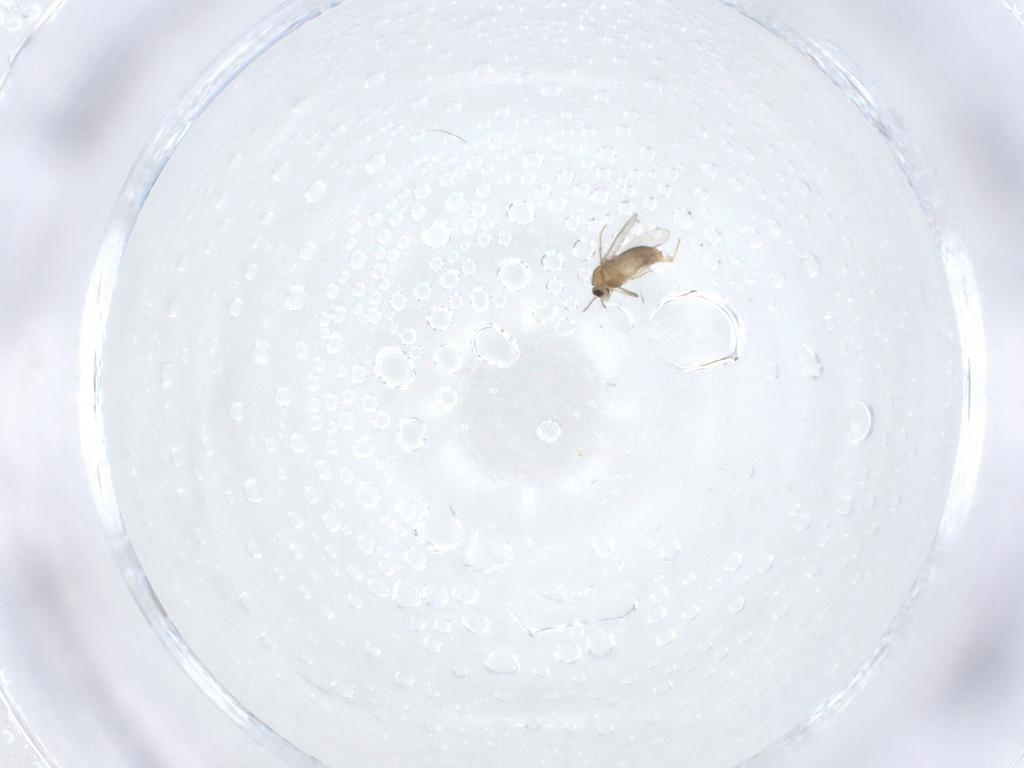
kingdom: Animalia
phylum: Arthropoda
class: Insecta
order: Diptera
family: Chironomidae
